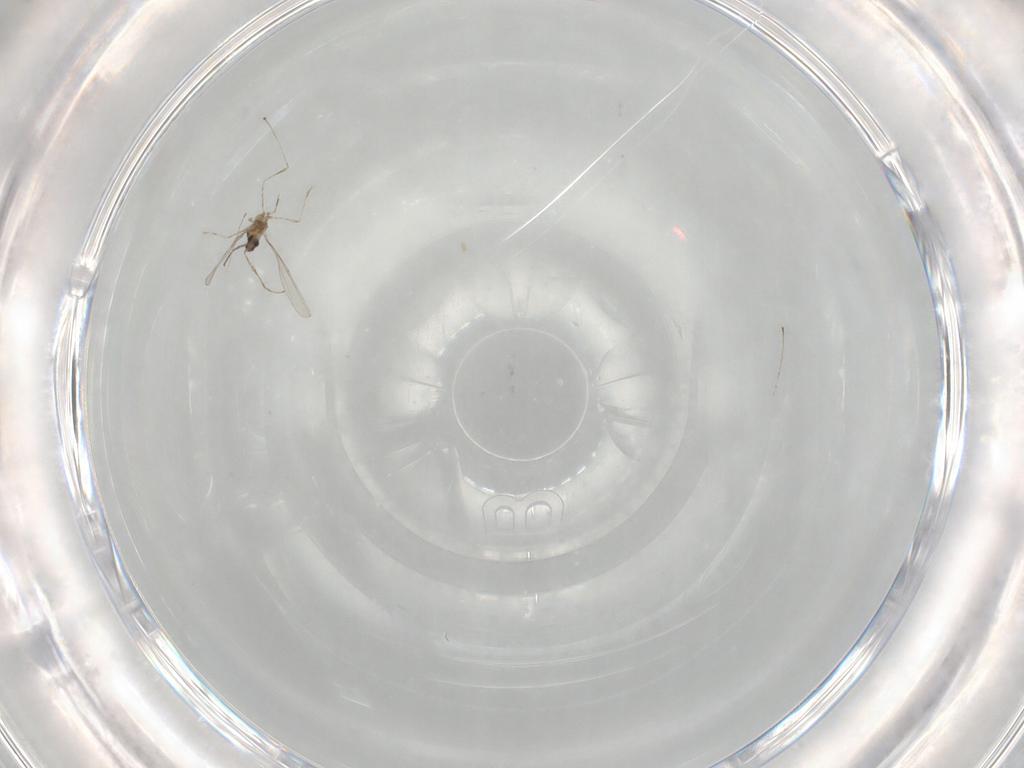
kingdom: Animalia
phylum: Arthropoda
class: Insecta
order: Diptera
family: Cecidomyiidae
